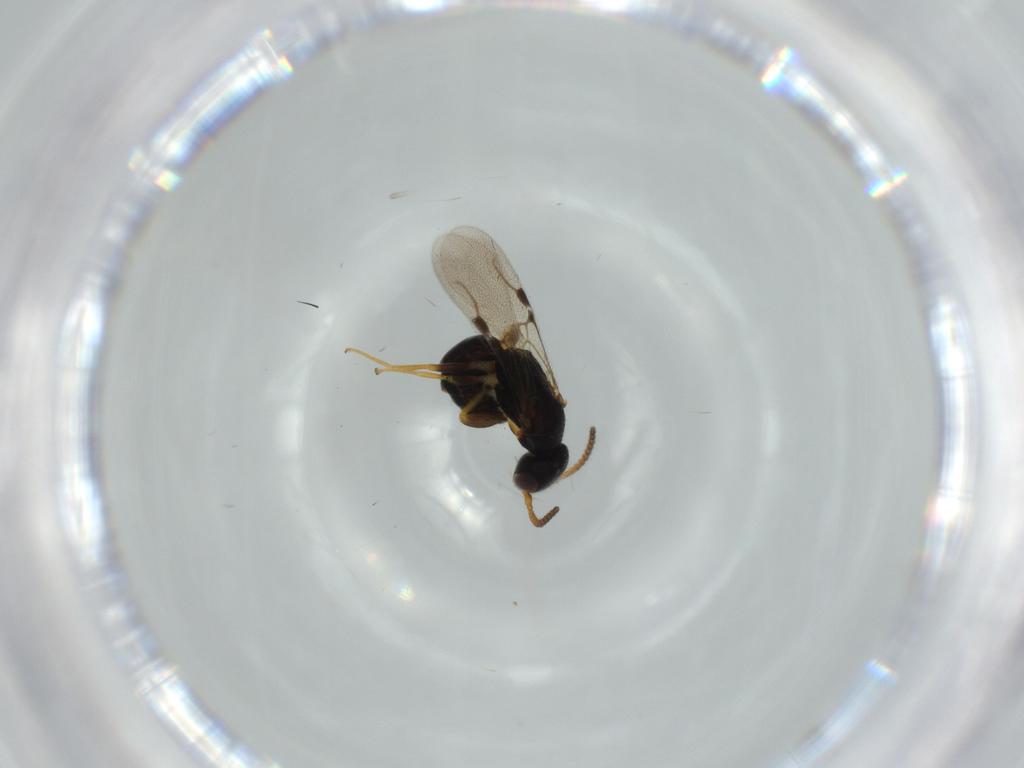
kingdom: Animalia
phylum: Arthropoda
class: Insecta
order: Hymenoptera
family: Bethylidae
